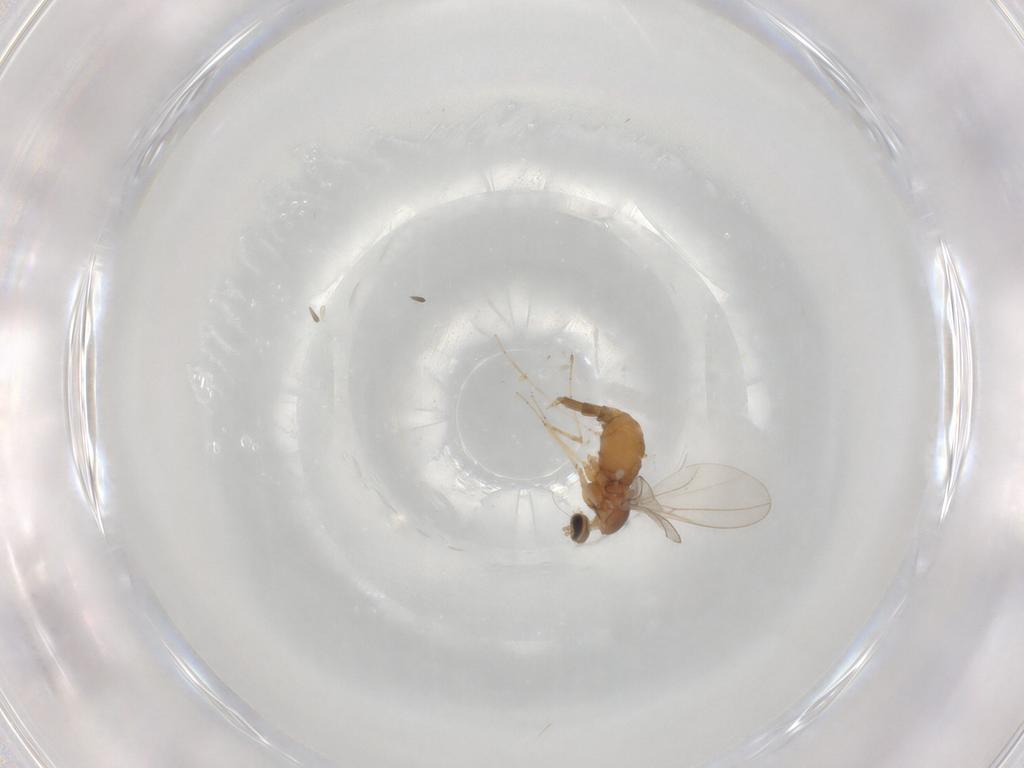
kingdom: Animalia
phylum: Arthropoda
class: Insecta
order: Diptera
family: Cecidomyiidae
